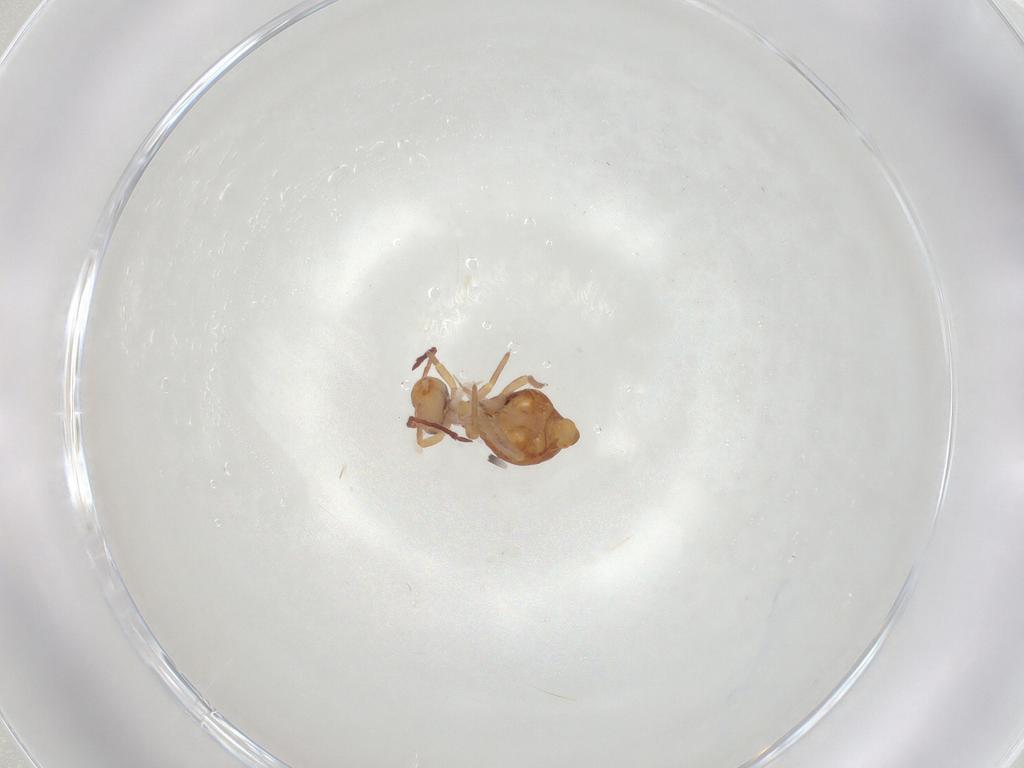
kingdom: Animalia
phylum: Arthropoda
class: Collembola
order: Symphypleona
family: Dicyrtomidae
